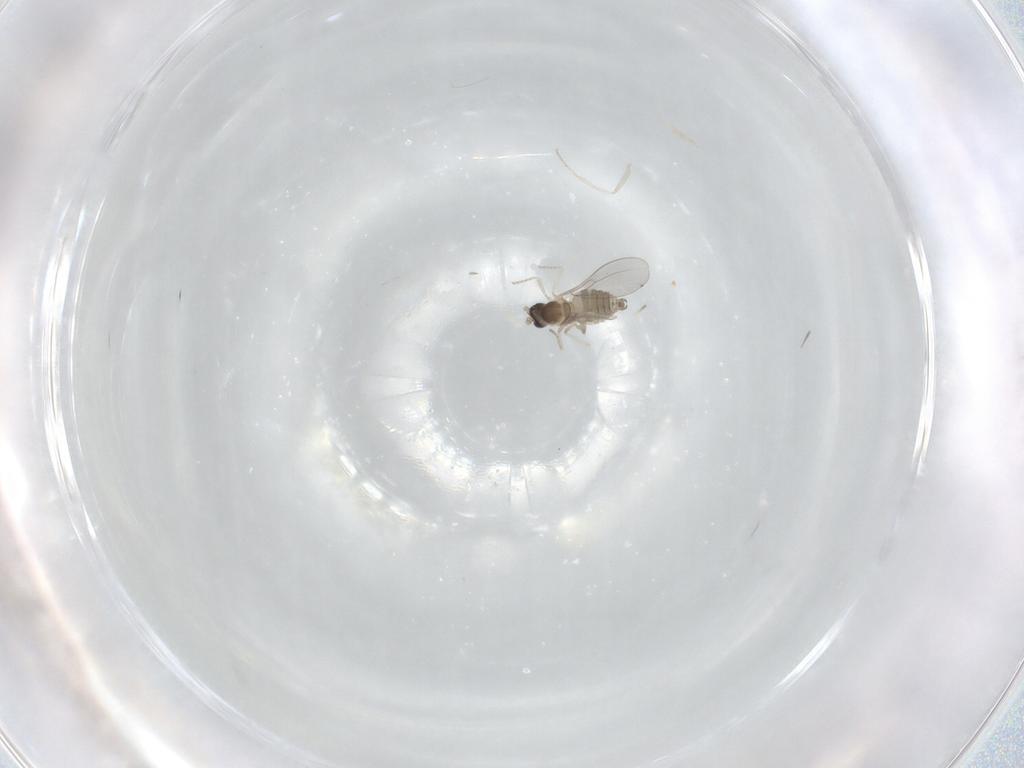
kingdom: Animalia
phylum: Arthropoda
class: Insecta
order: Diptera
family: Cecidomyiidae
